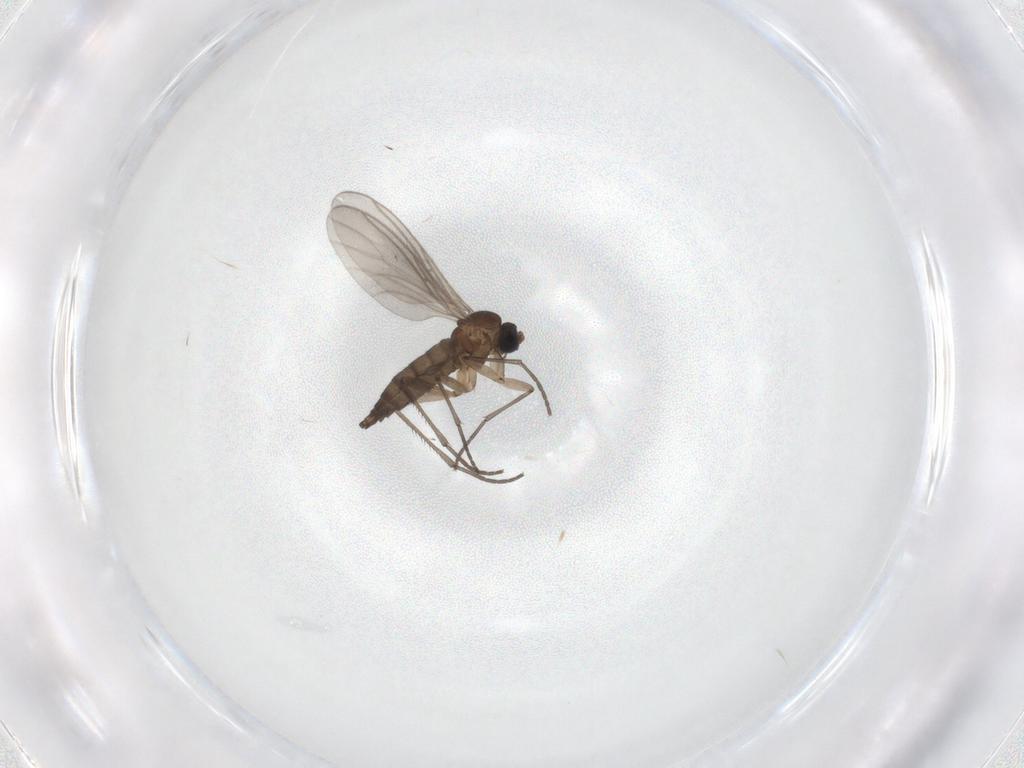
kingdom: Animalia
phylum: Arthropoda
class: Insecta
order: Diptera
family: Sciaridae
